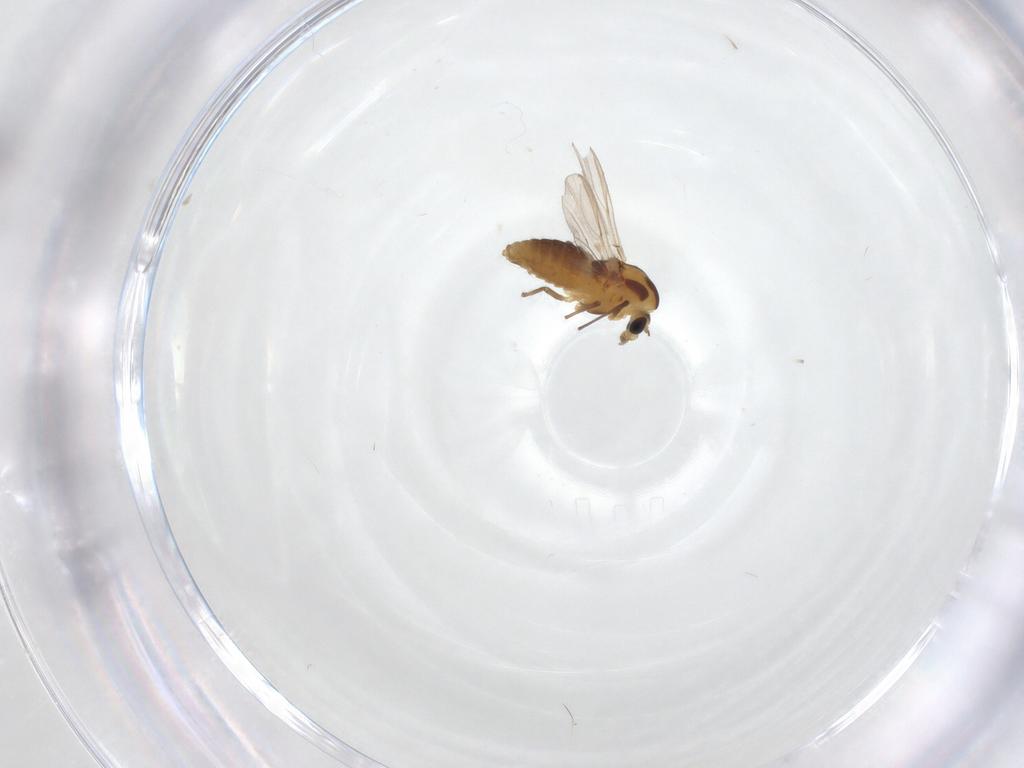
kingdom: Animalia
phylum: Arthropoda
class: Insecta
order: Diptera
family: Chironomidae
